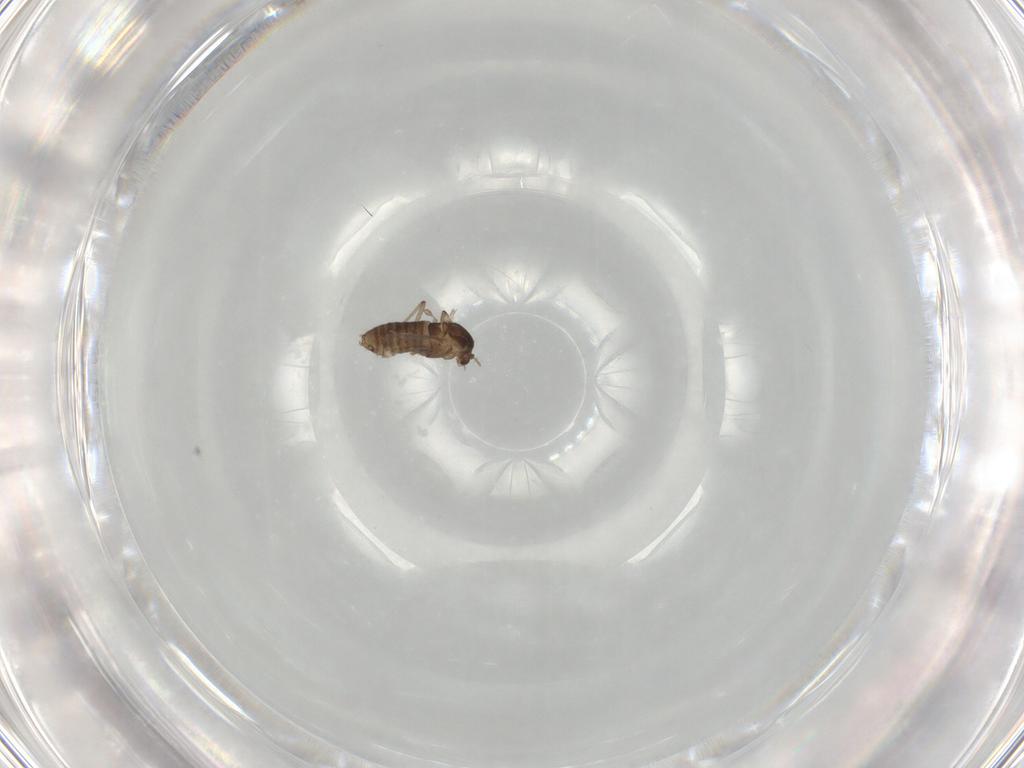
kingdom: Animalia
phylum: Arthropoda
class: Insecta
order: Diptera
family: Chironomidae
